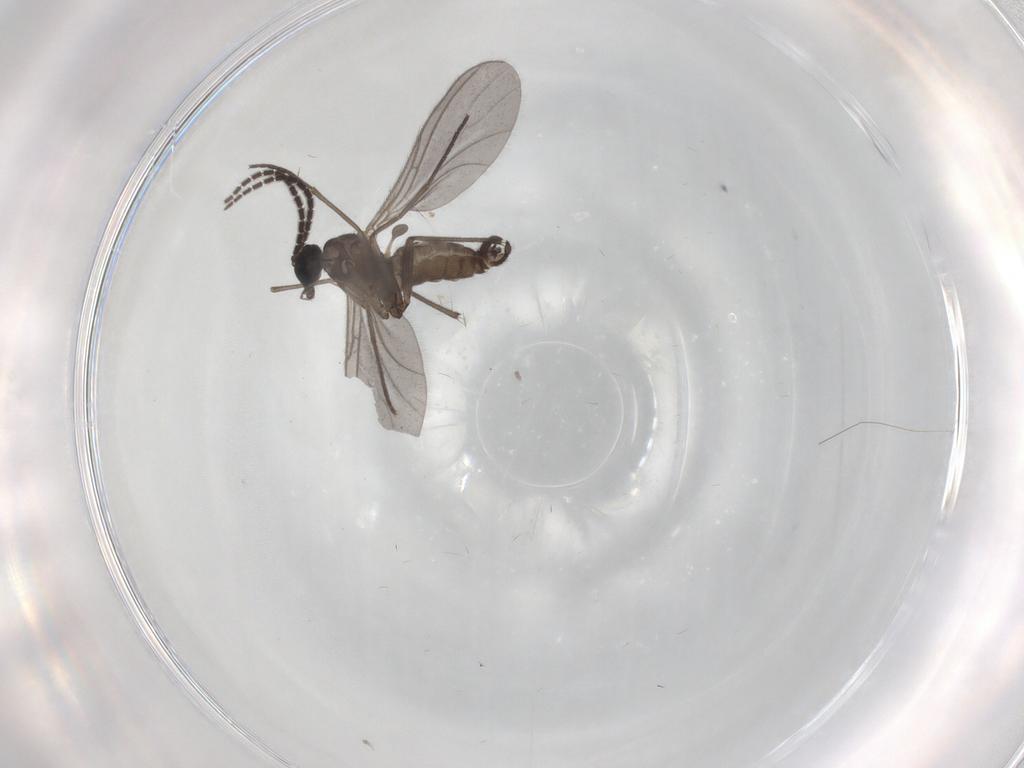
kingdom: Animalia
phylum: Arthropoda
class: Insecta
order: Diptera
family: Sciaridae
